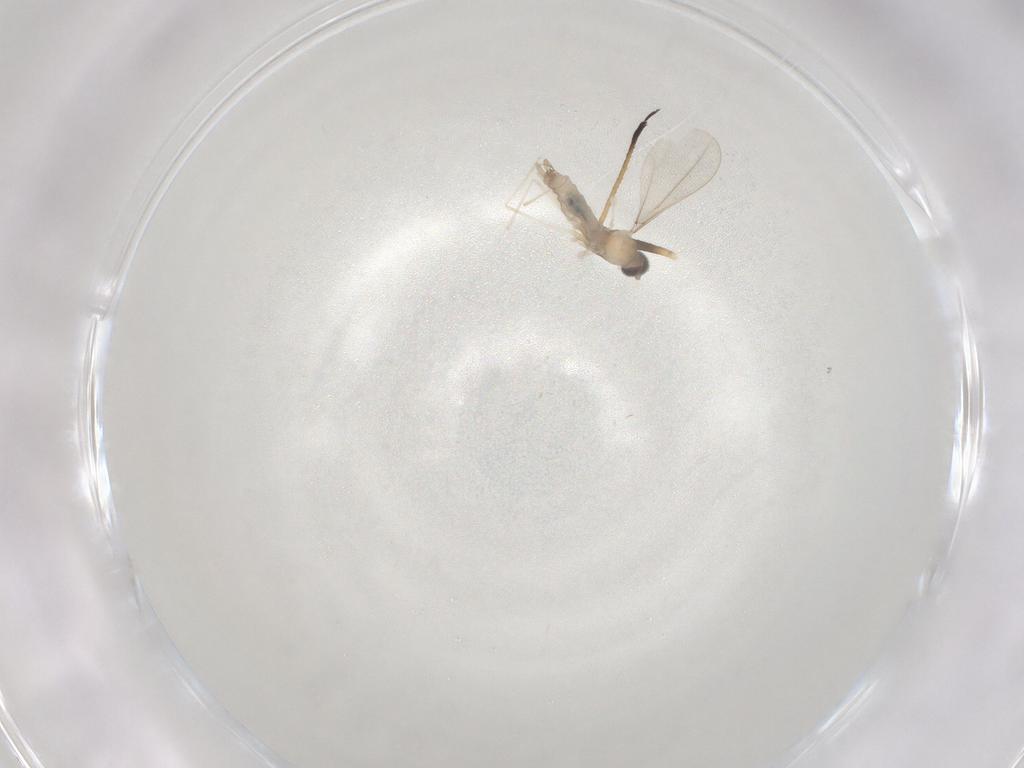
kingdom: Animalia
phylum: Arthropoda
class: Insecta
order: Diptera
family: Cecidomyiidae
